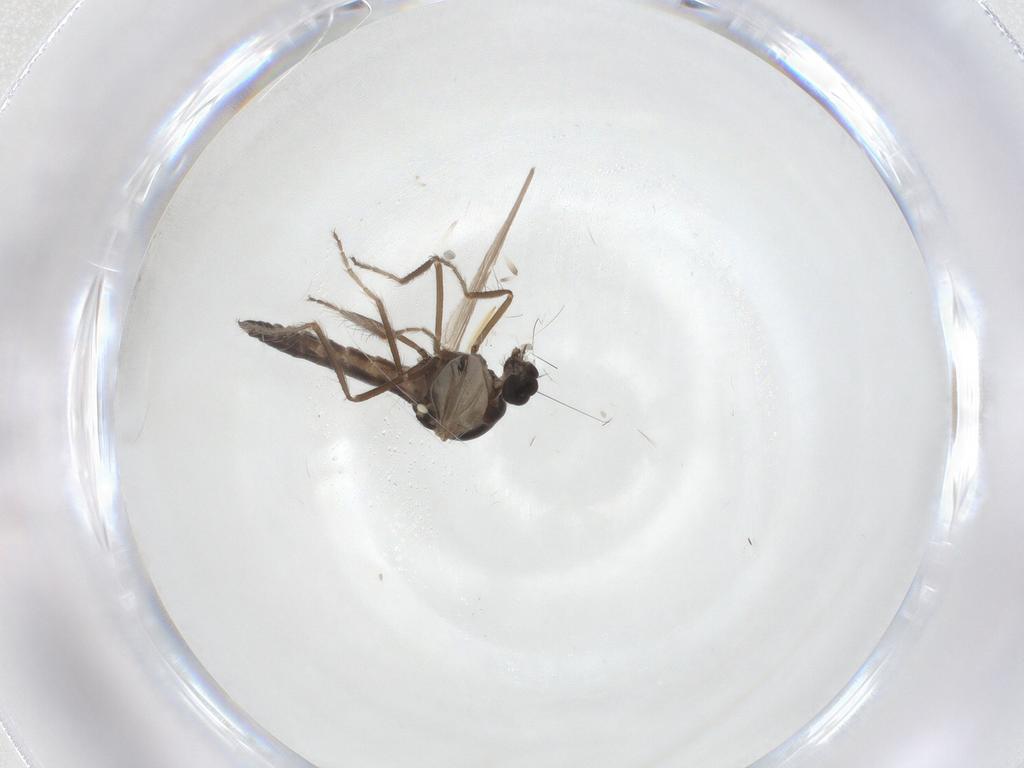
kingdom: Animalia
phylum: Arthropoda
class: Insecta
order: Diptera
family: Ceratopogonidae
